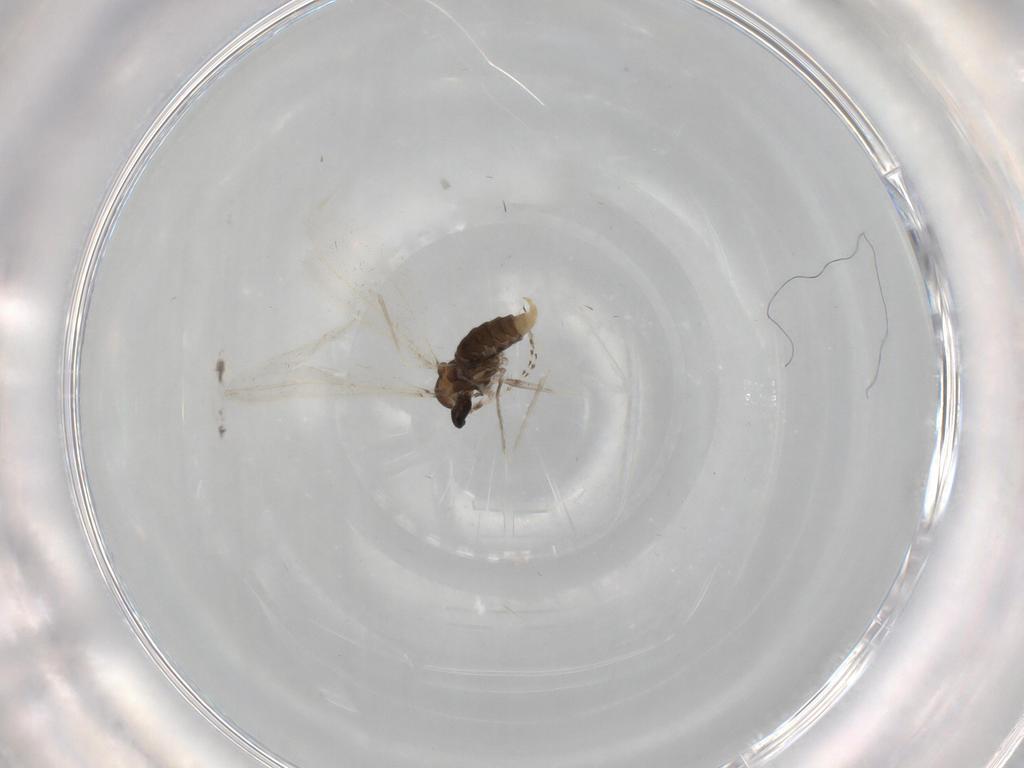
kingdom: Animalia
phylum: Arthropoda
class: Insecta
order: Diptera
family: Cecidomyiidae
